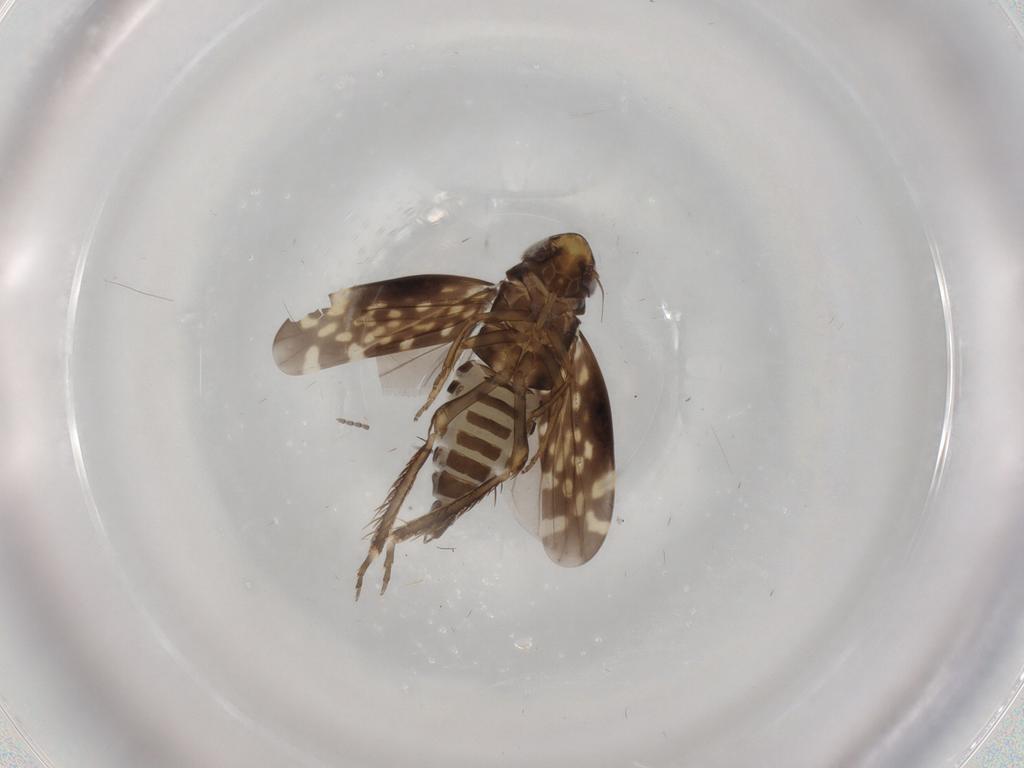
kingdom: Animalia
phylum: Arthropoda
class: Insecta
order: Hemiptera
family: Cicadellidae
